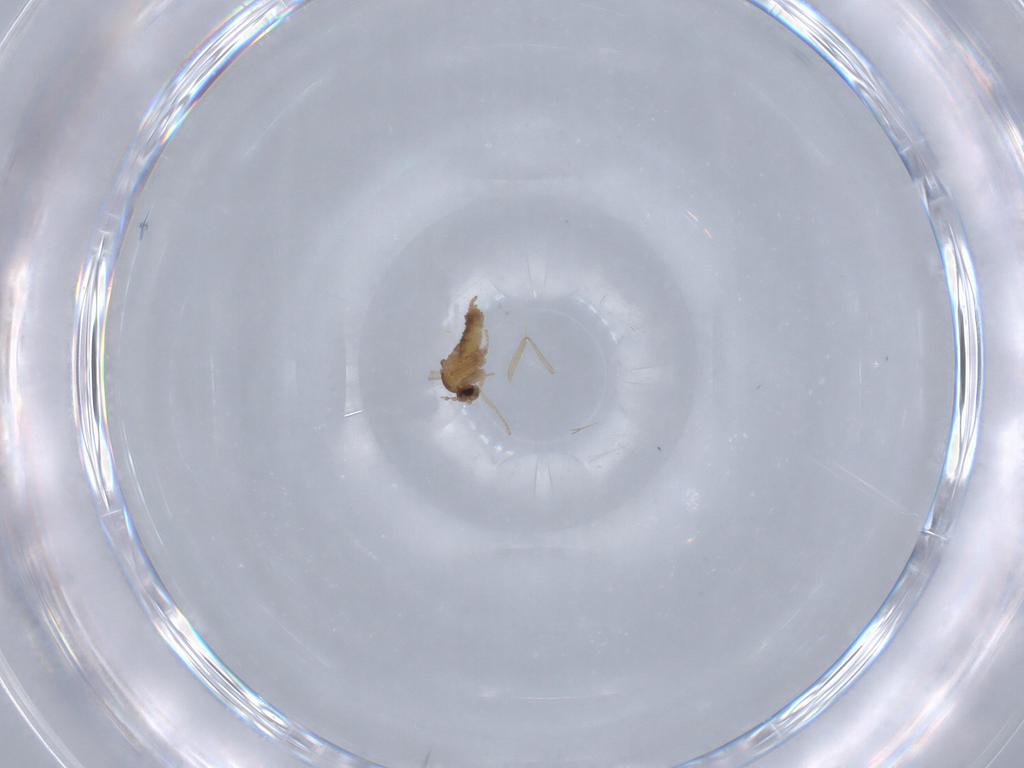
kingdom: Animalia
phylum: Arthropoda
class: Insecta
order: Diptera
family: Cecidomyiidae
